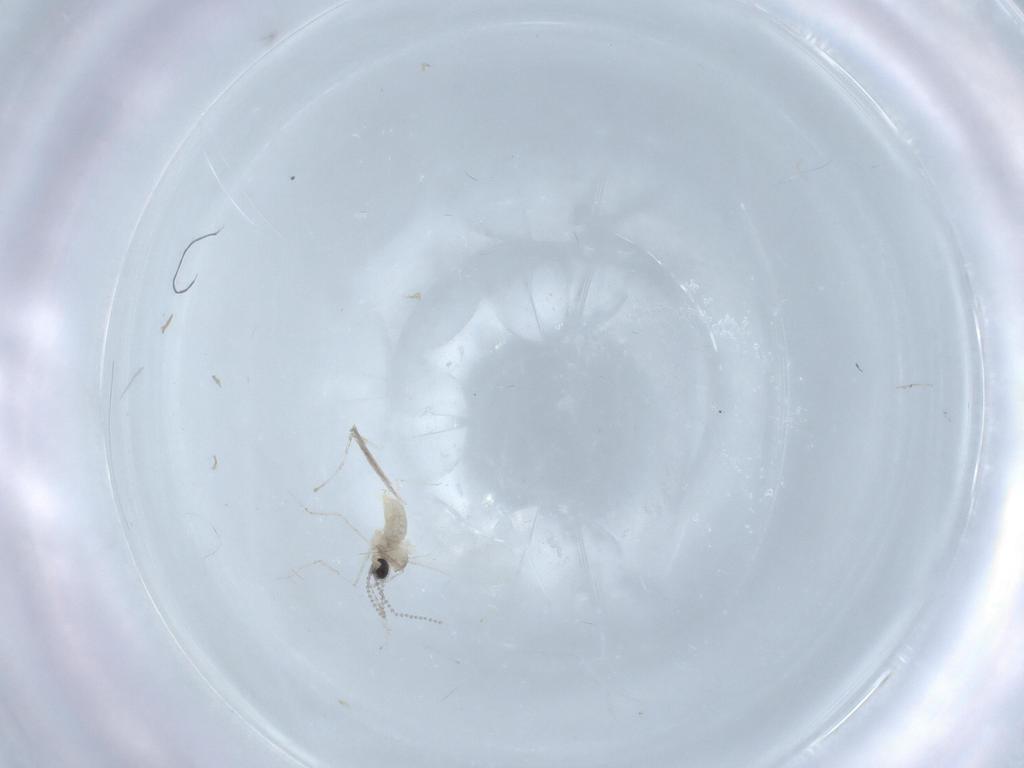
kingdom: Animalia
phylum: Arthropoda
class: Insecta
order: Diptera
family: Cecidomyiidae
